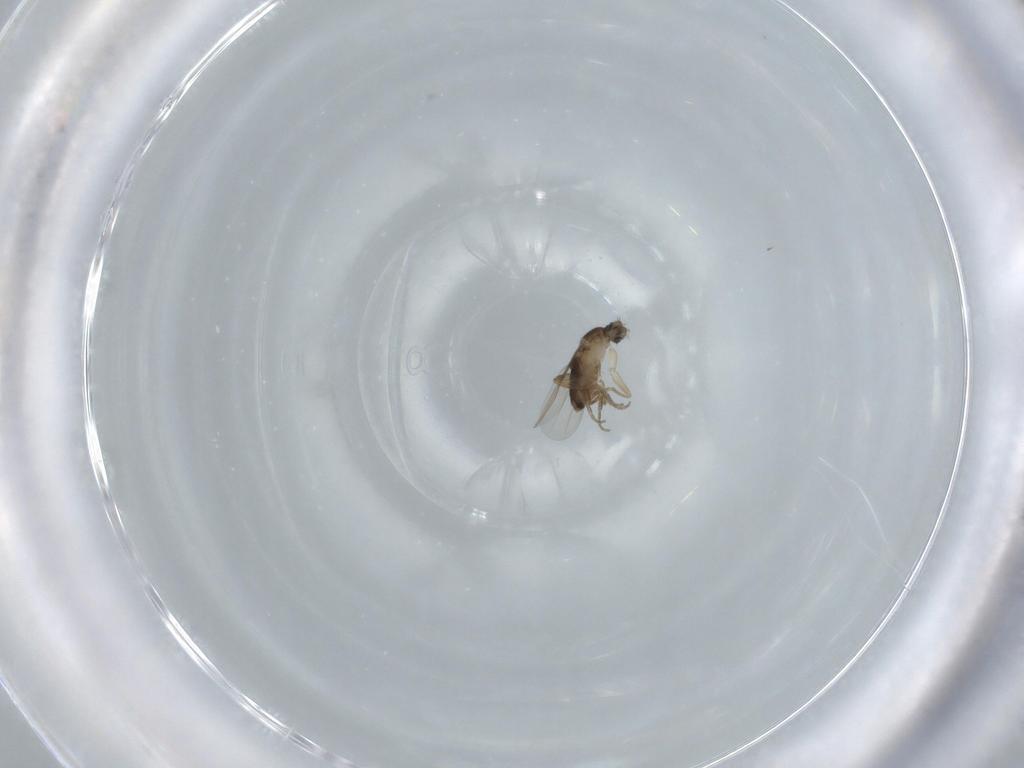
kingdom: Animalia
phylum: Arthropoda
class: Insecta
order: Diptera
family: Phoridae
